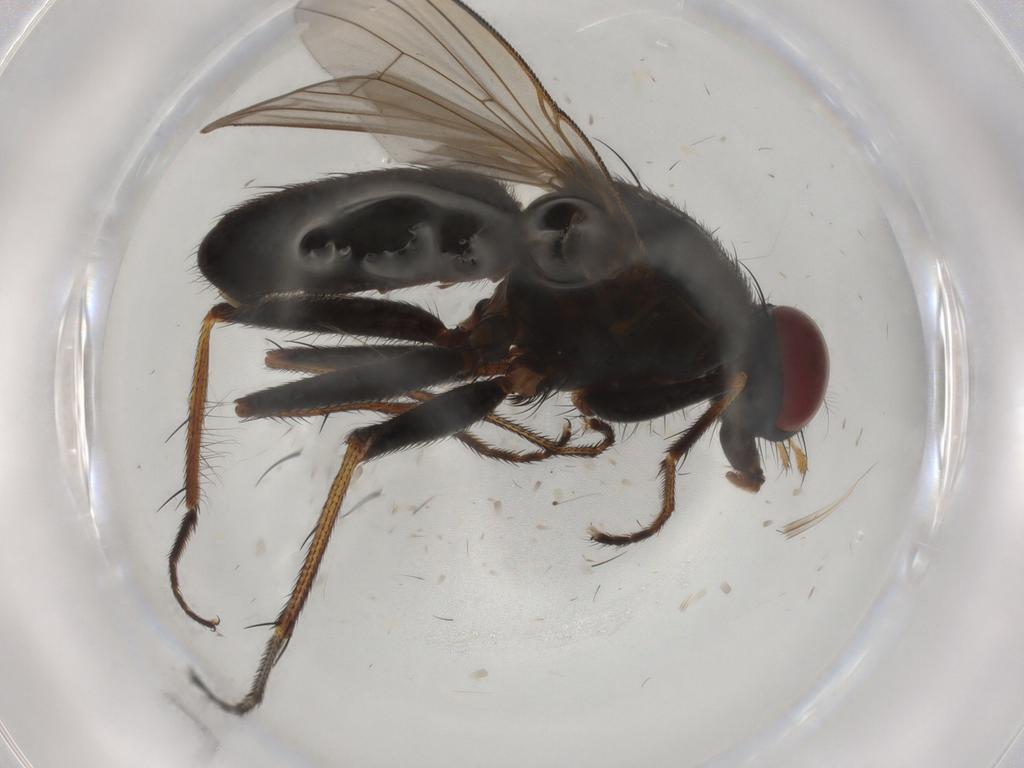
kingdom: Animalia
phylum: Arthropoda
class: Insecta
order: Diptera
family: Muscidae
